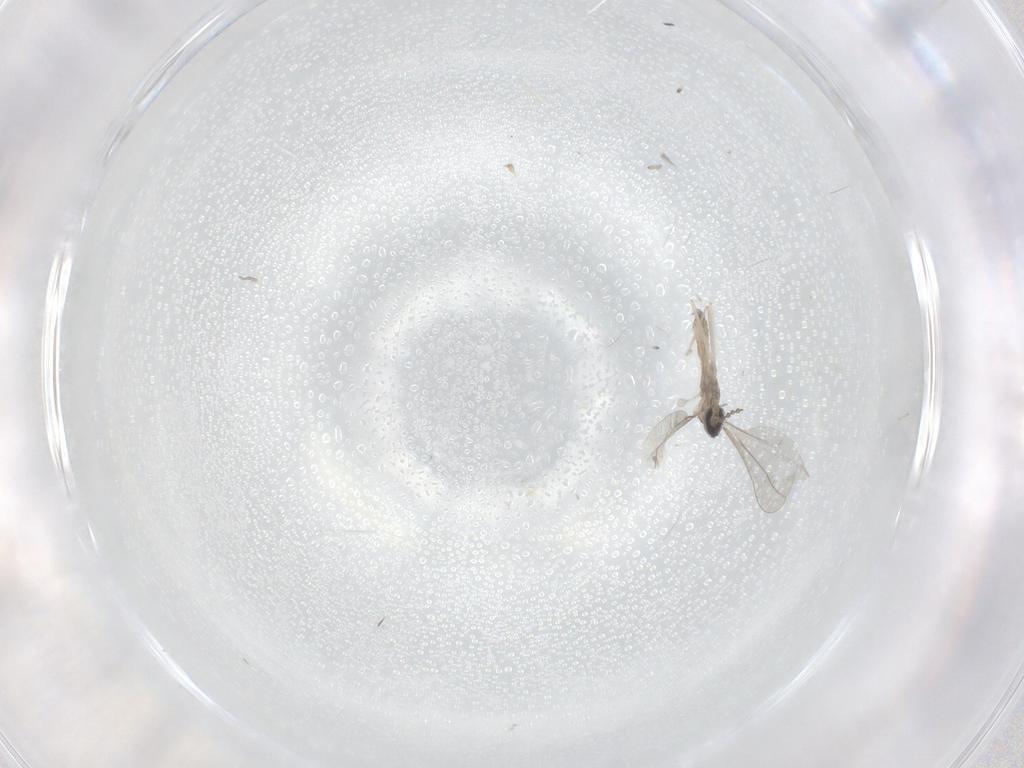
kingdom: Animalia
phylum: Arthropoda
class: Insecta
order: Diptera
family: Cecidomyiidae
